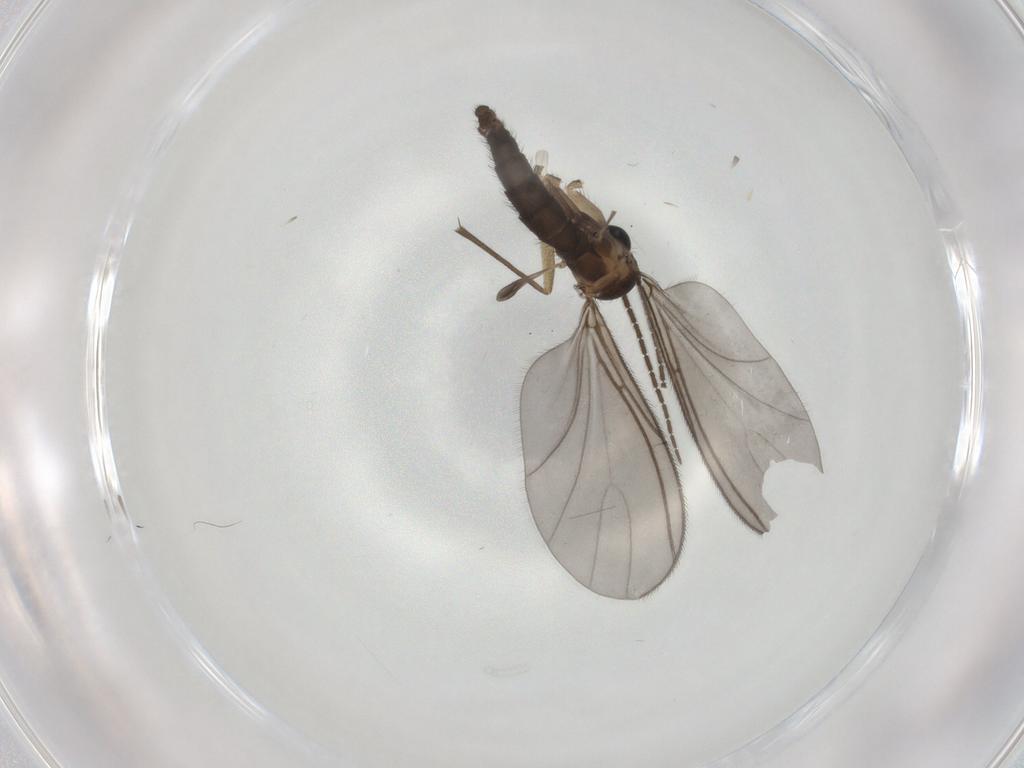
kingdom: Animalia
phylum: Arthropoda
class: Insecta
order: Diptera
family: Sciaridae
